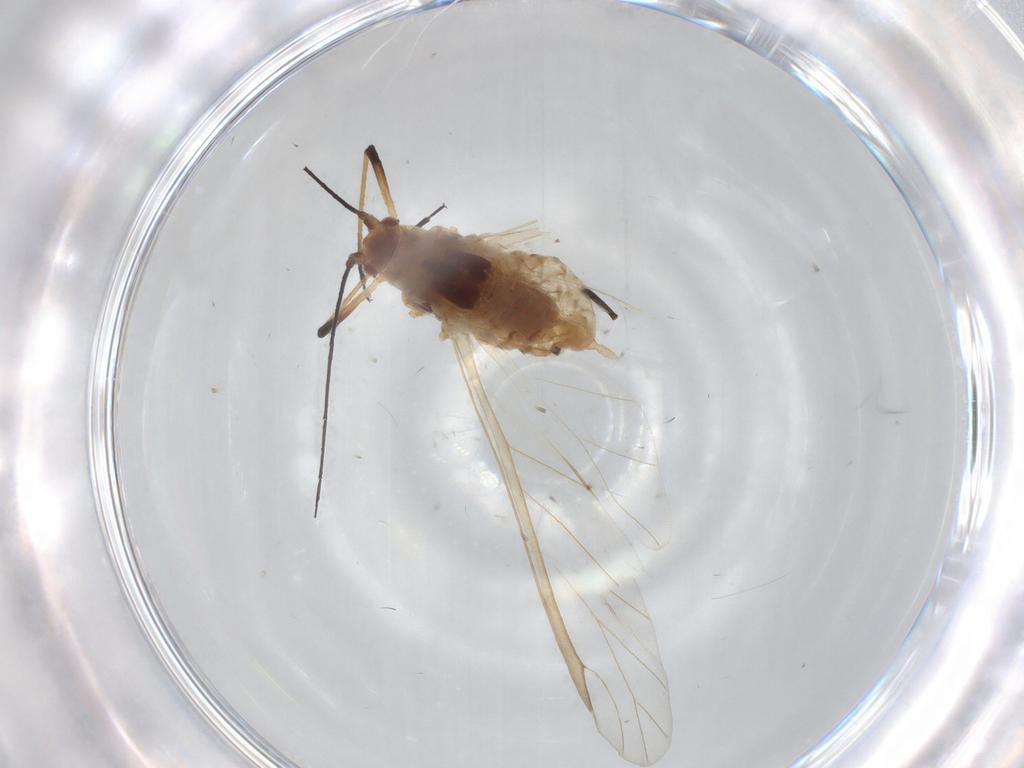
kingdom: Animalia
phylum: Arthropoda
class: Insecta
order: Hemiptera
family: Aphididae
